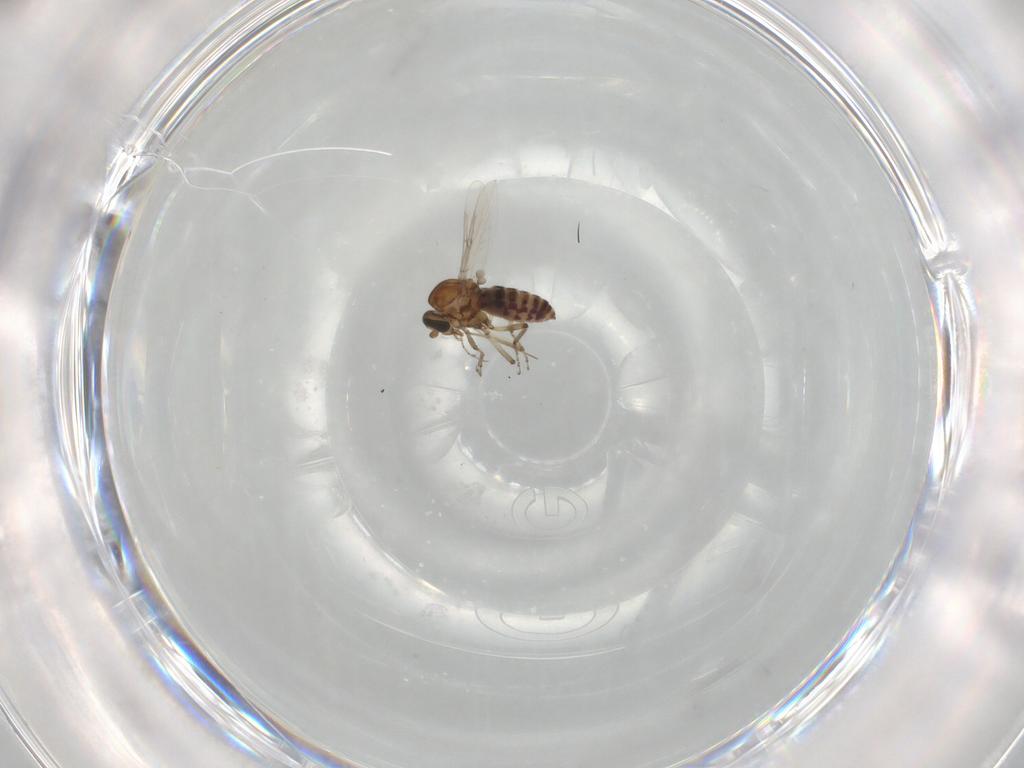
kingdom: Animalia
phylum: Arthropoda
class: Insecta
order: Diptera
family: Ceratopogonidae
